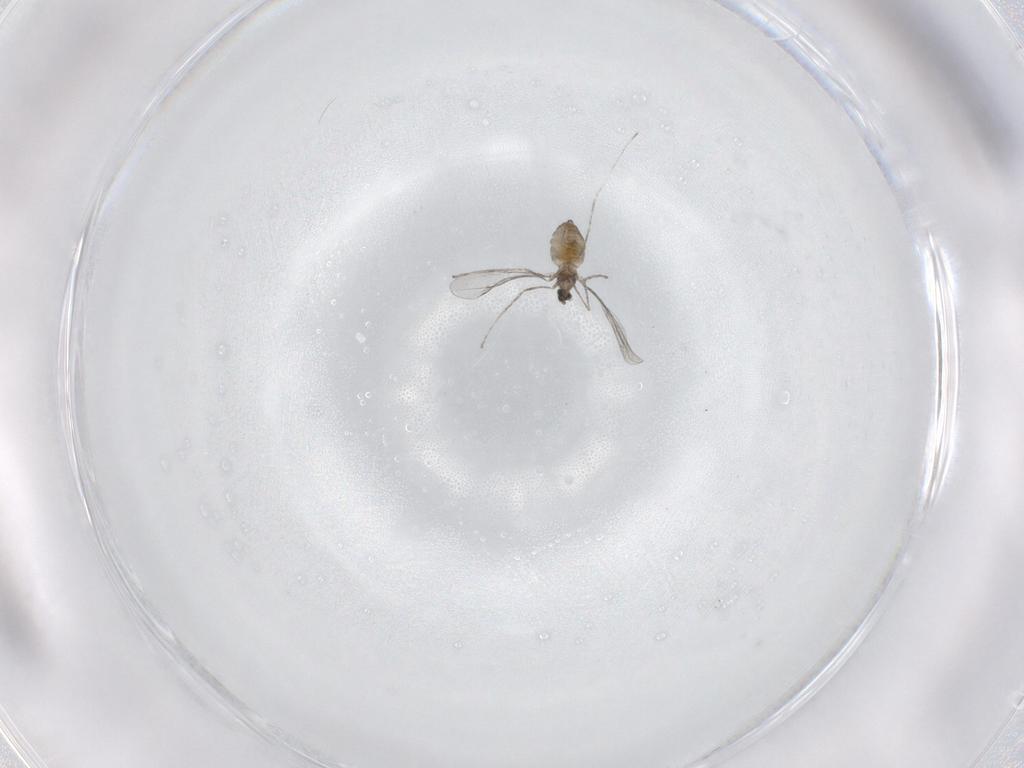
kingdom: Animalia
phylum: Arthropoda
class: Insecta
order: Diptera
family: Cecidomyiidae
